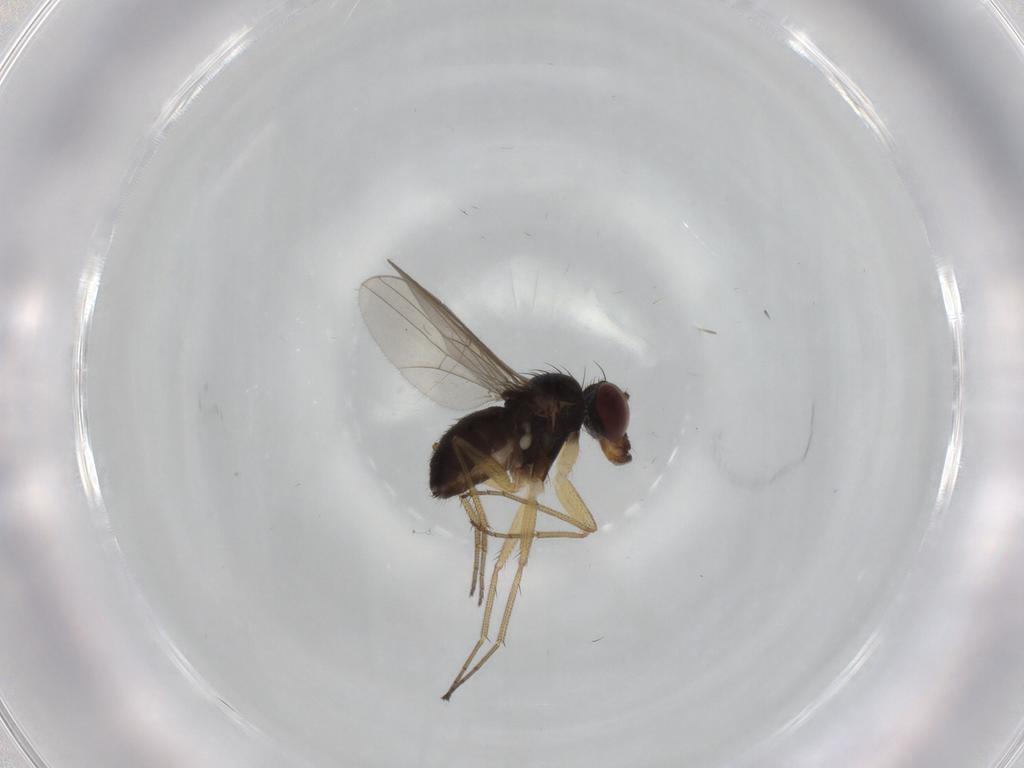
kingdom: Animalia
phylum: Arthropoda
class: Insecta
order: Diptera
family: Dolichopodidae
